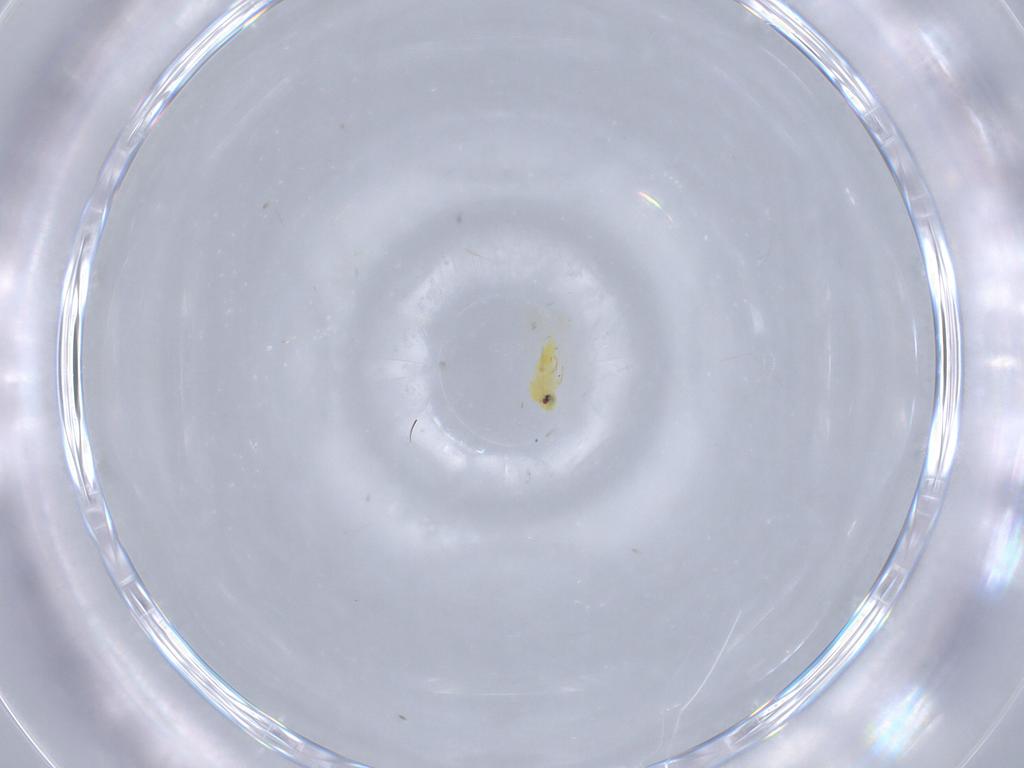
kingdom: Animalia
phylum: Arthropoda
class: Insecta
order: Hemiptera
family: Aleyrodidae
